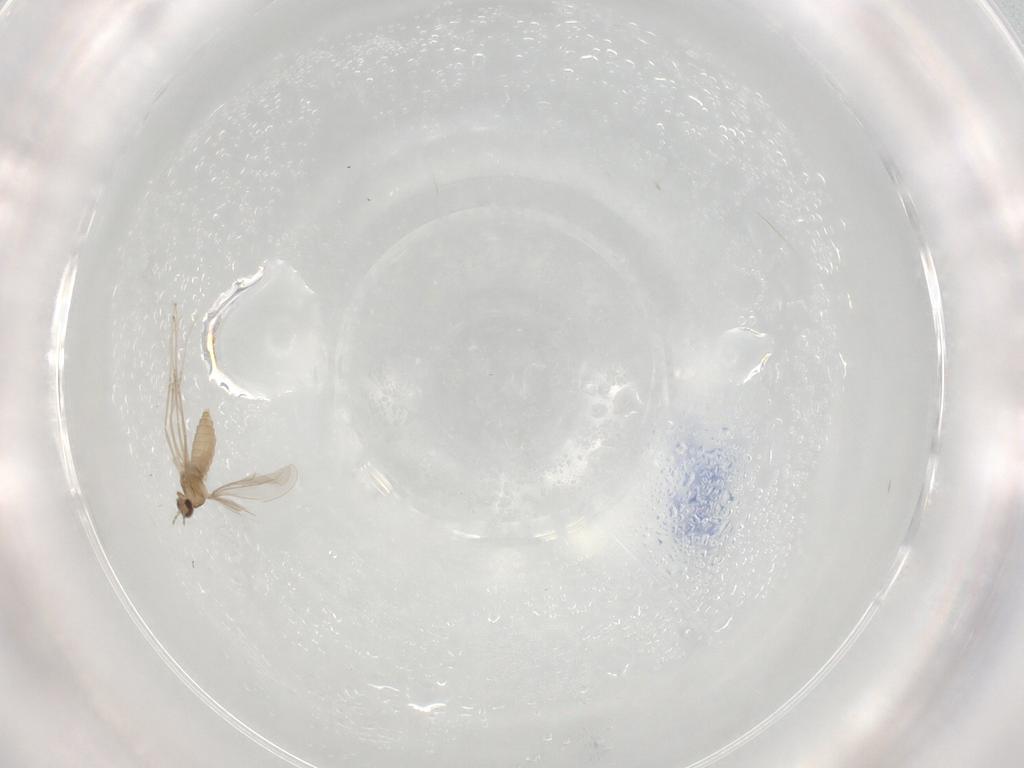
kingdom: Animalia
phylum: Arthropoda
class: Insecta
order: Diptera
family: Cecidomyiidae
